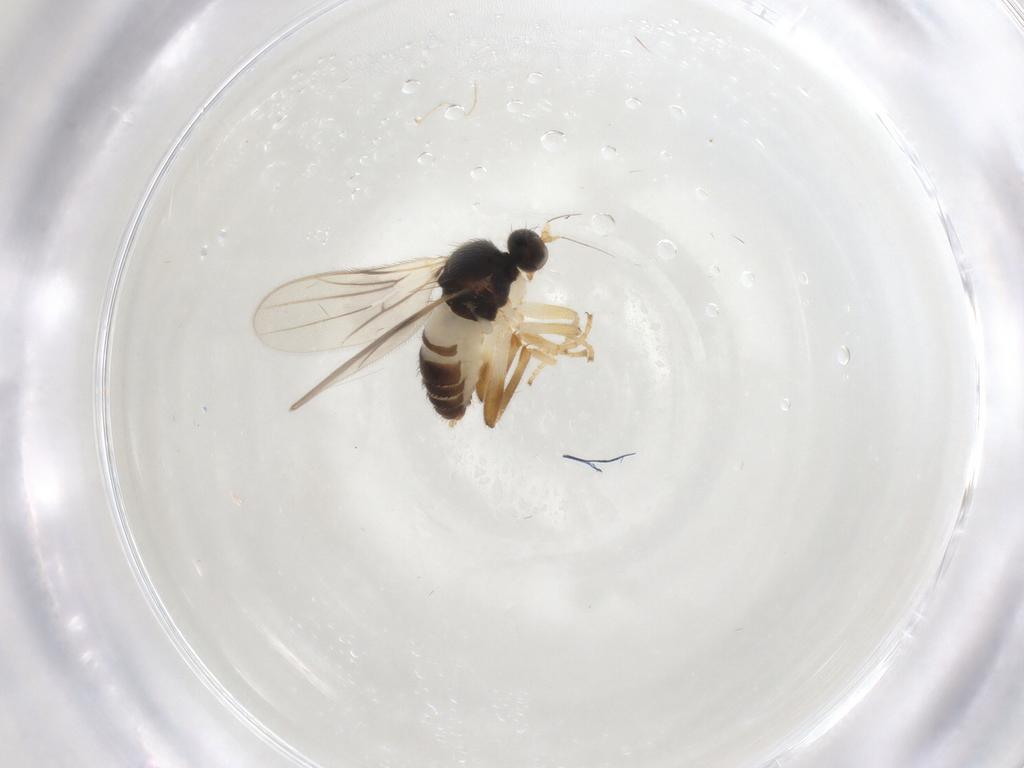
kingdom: Animalia
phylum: Arthropoda
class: Insecta
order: Diptera
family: Hybotidae
